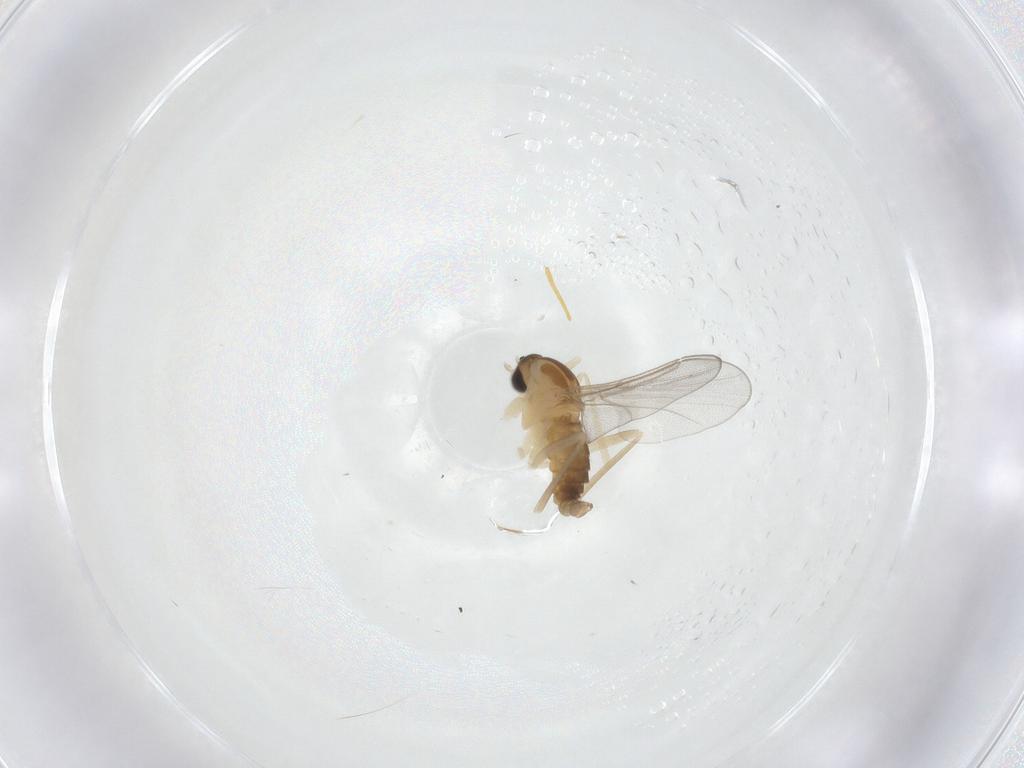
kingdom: Animalia
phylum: Arthropoda
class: Insecta
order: Diptera
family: Cecidomyiidae
